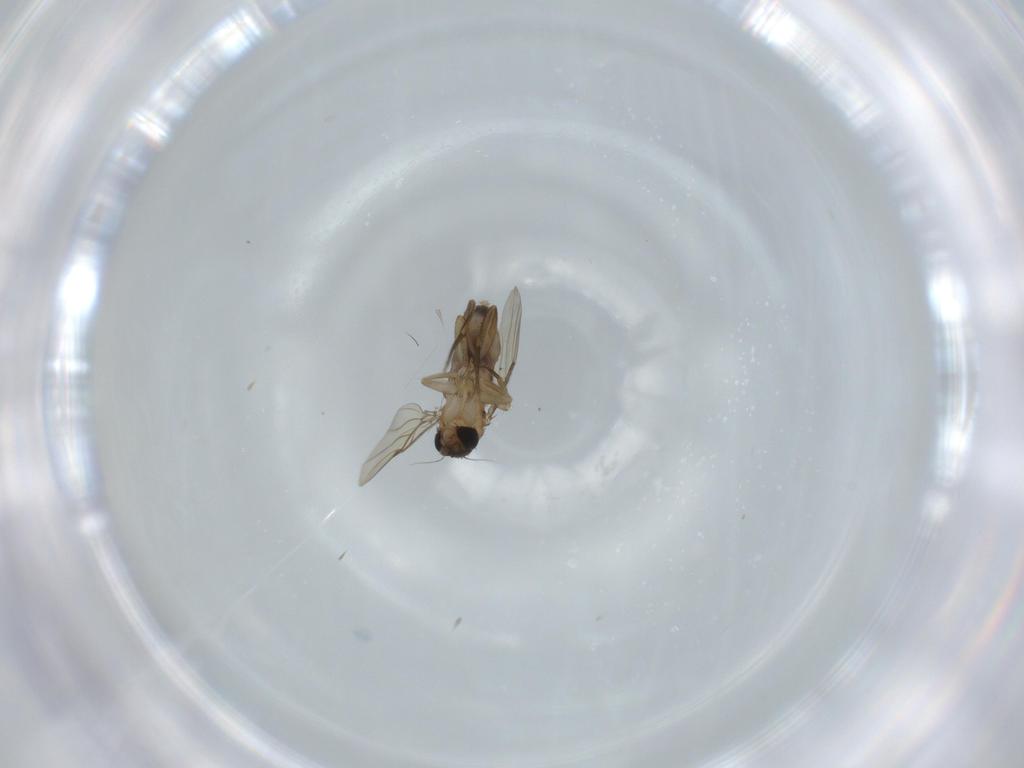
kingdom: Animalia
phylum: Arthropoda
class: Insecta
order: Diptera
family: Phoridae
